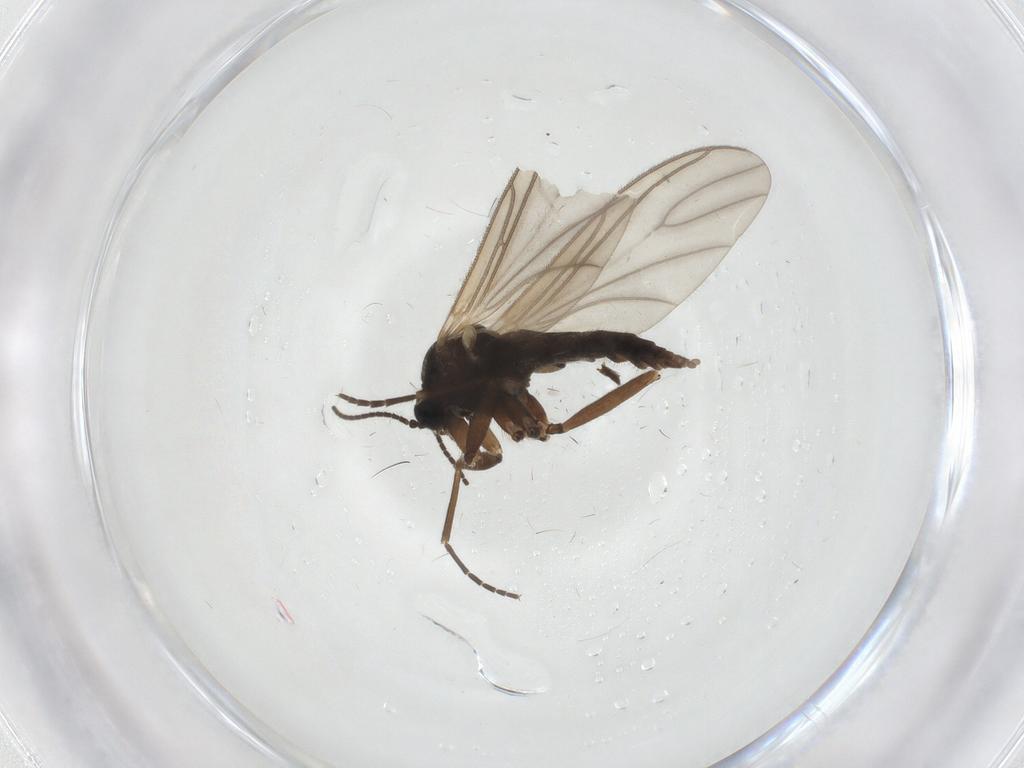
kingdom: Animalia
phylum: Arthropoda
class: Insecta
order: Diptera
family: Sciaridae
